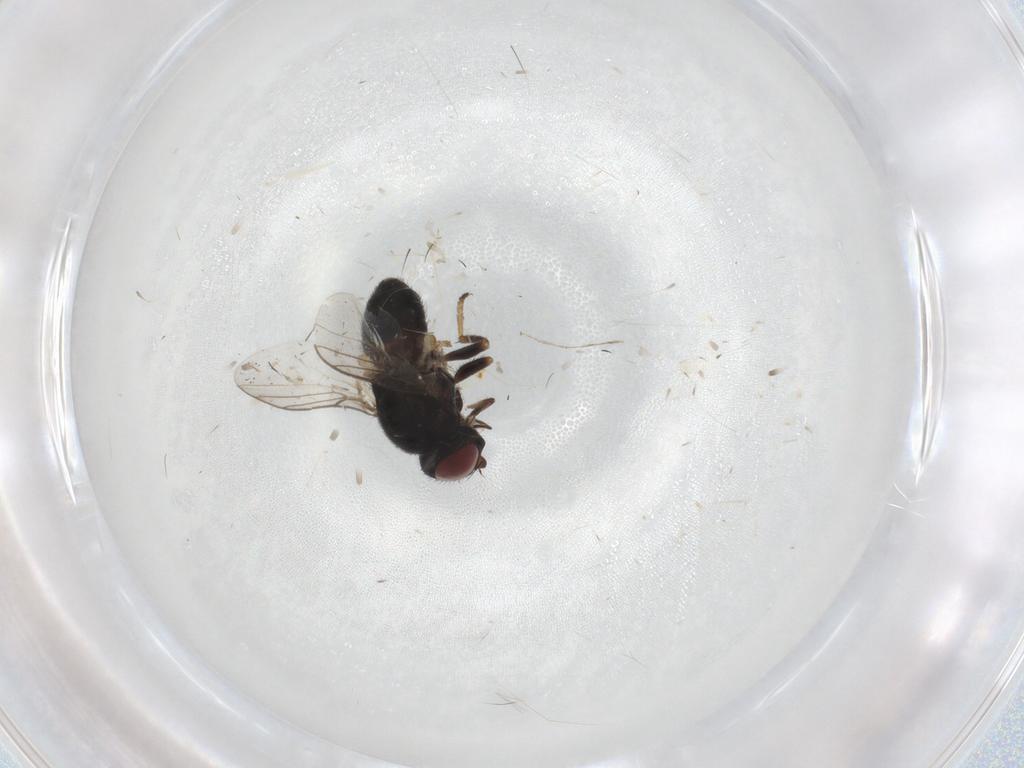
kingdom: Animalia
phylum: Arthropoda
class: Insecta
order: Diptera
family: Chloropidae
